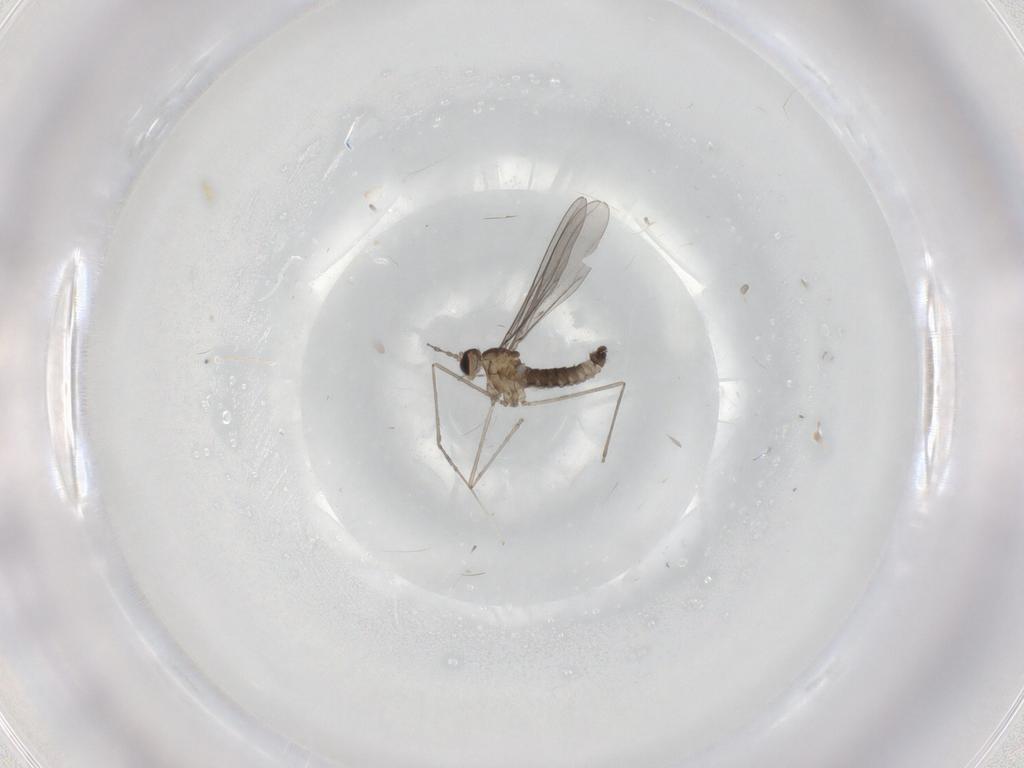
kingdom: Animalia
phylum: Arthropoda
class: Insecta
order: Diptera
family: Cecidomyiidae
